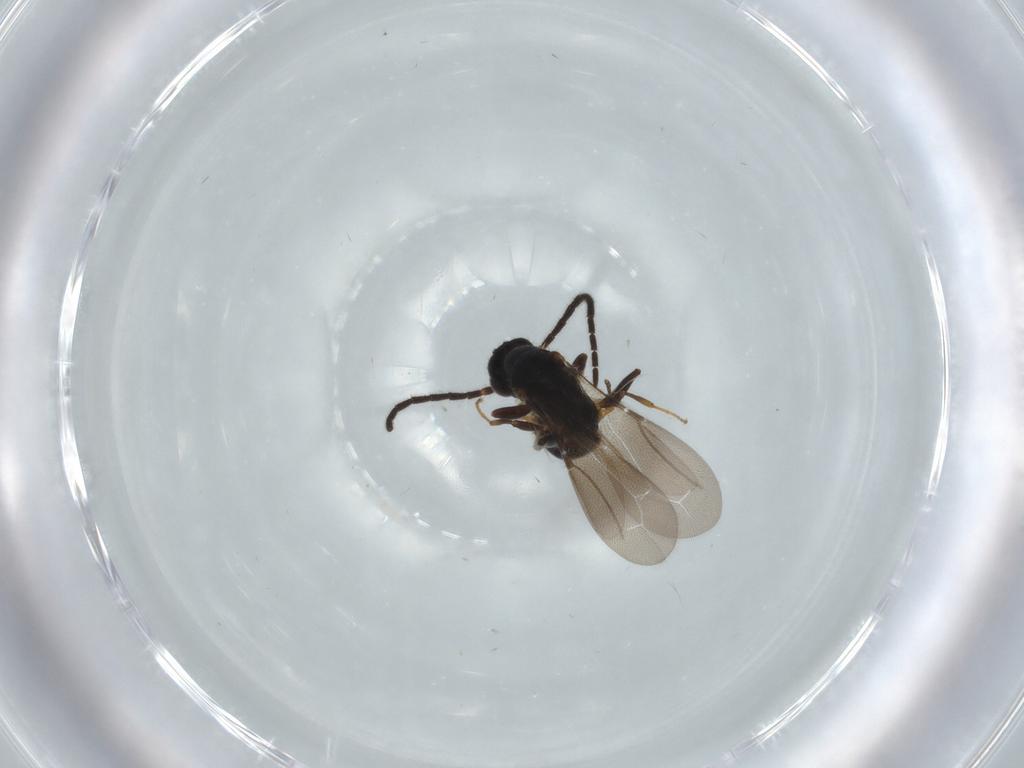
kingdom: Animalia
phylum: Arthropoda
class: Insecta
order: Hymenoptera
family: Bethylidae
